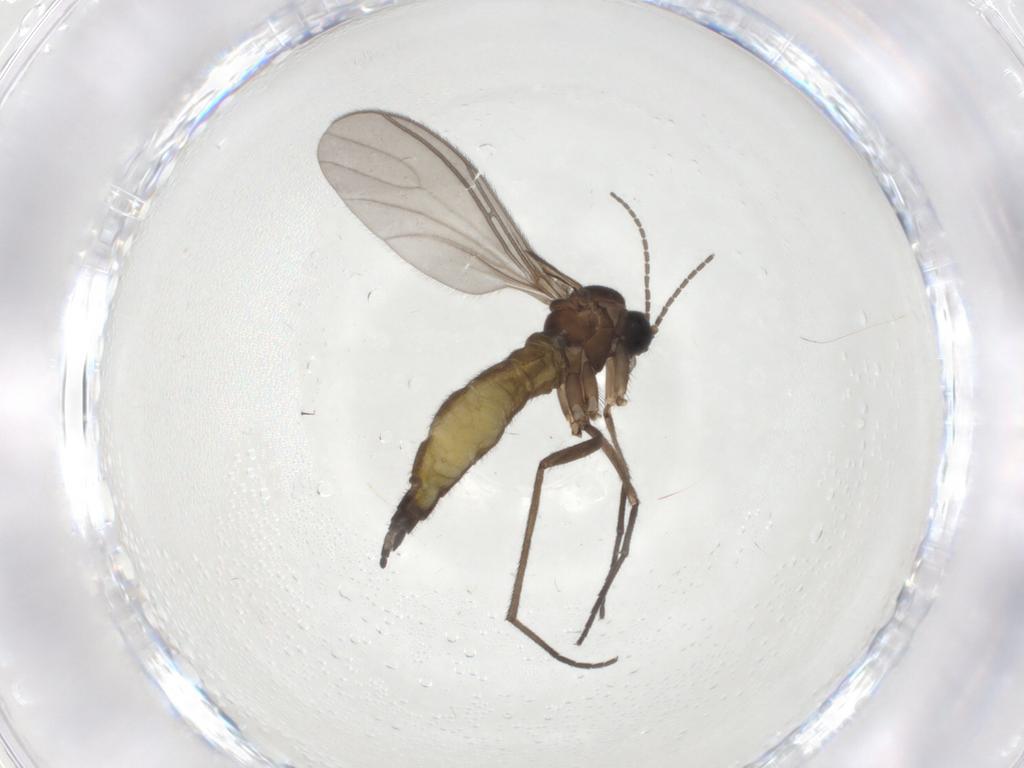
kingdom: Animalia
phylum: Arthropoda
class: Insecta
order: Diptera
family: Sciaridae
